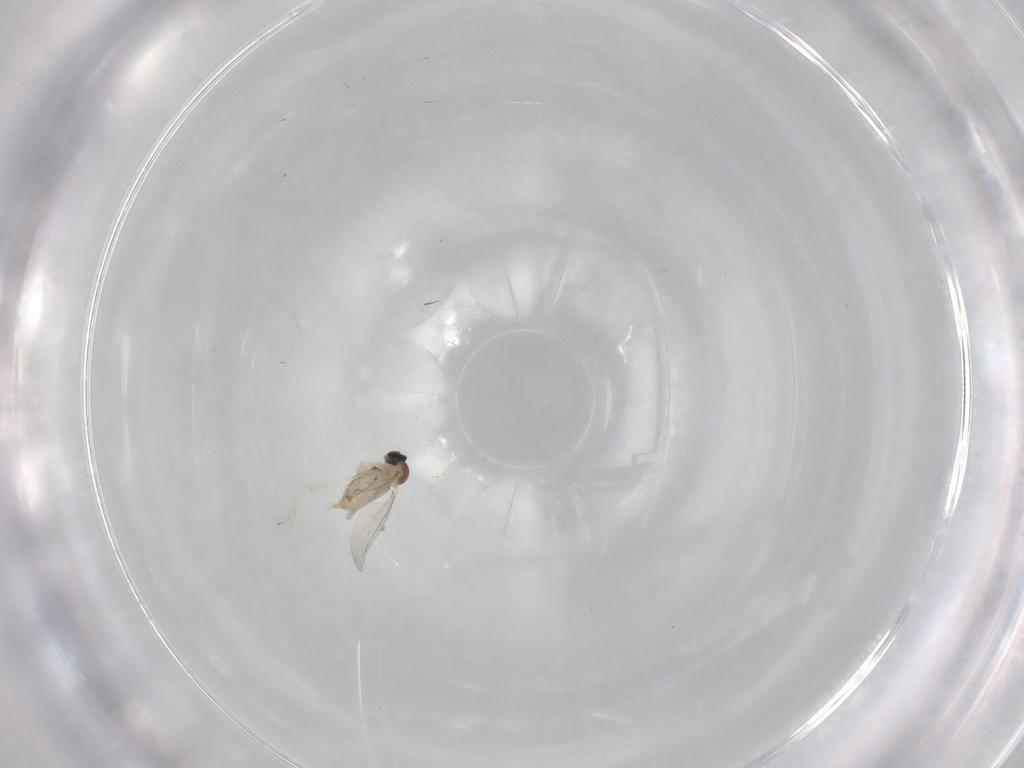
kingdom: Animalia
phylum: Arthropoda
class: Insecta
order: Diptera
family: Cecidomyiidae
